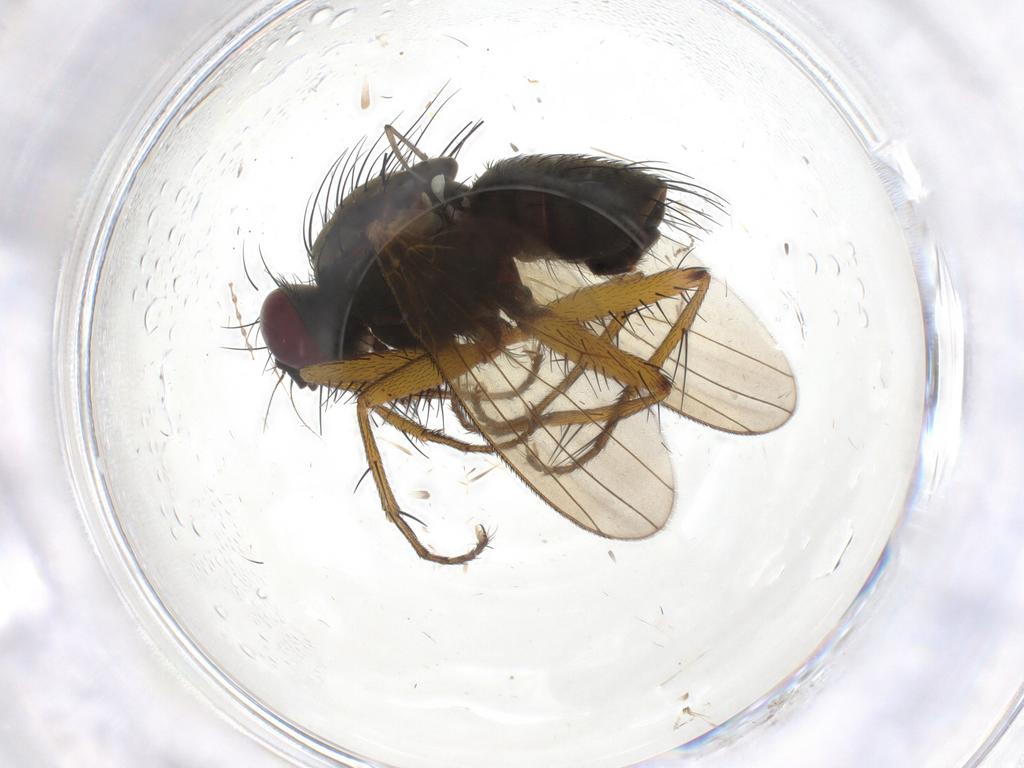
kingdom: Animalia
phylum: Arthropoda
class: Insecta
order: Diptera
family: Muscidae
